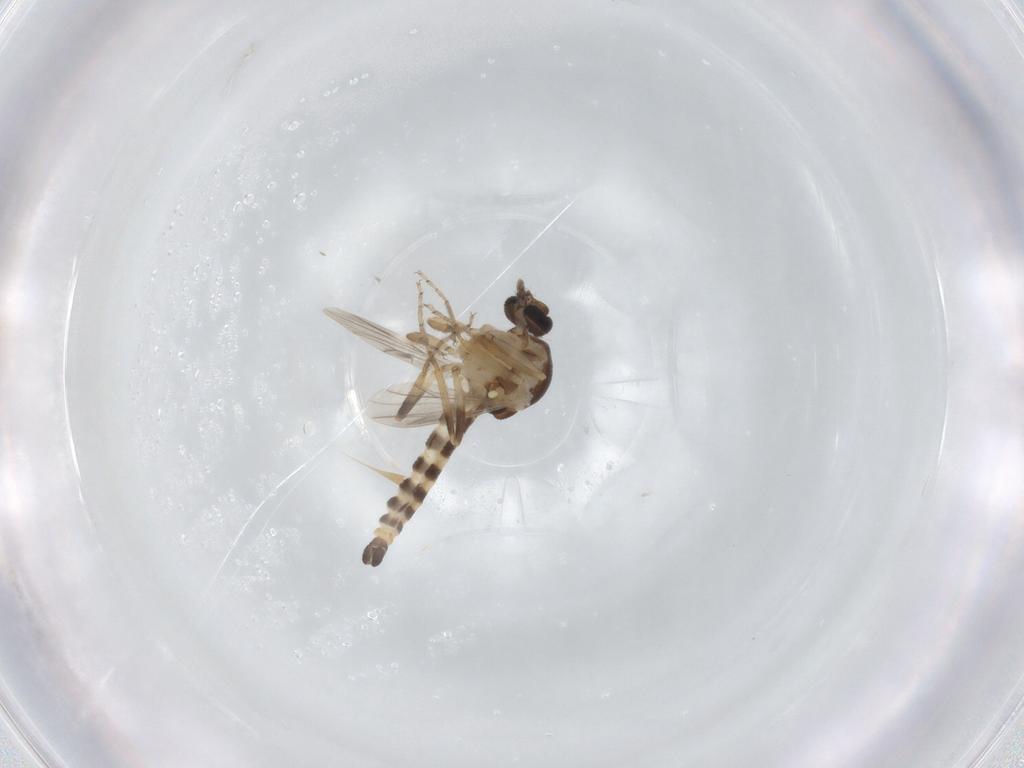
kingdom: Animalia
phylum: Arthropoda
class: Insecta
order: Diptera
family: Ceratopogonidae
